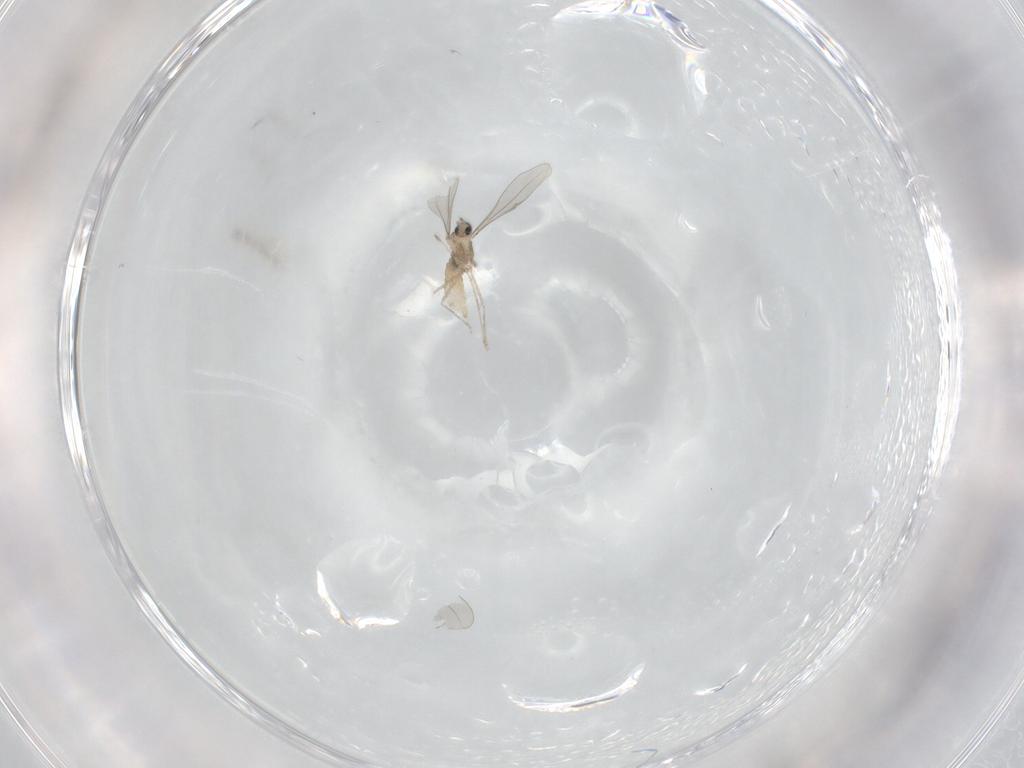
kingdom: Animalia
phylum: Arthropoda
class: Insecta
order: Diptera
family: Cecidomyiidae
